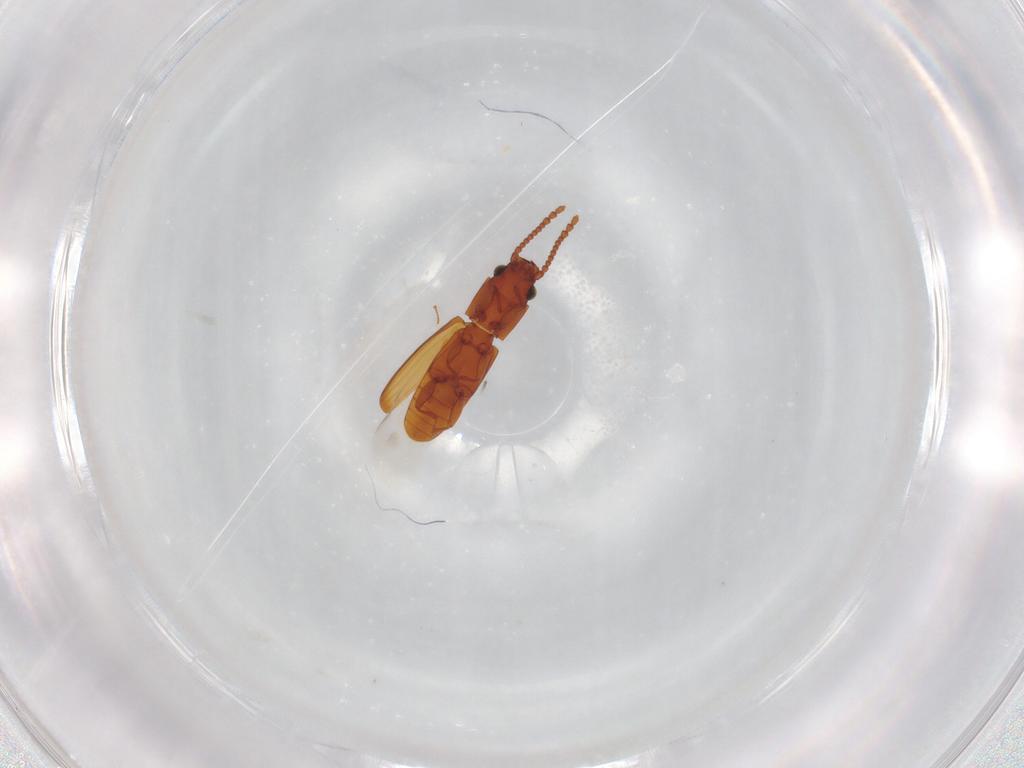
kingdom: Animalia
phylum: Arthropoda
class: Insecta
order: Coleoptera
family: Laemophloeidae
